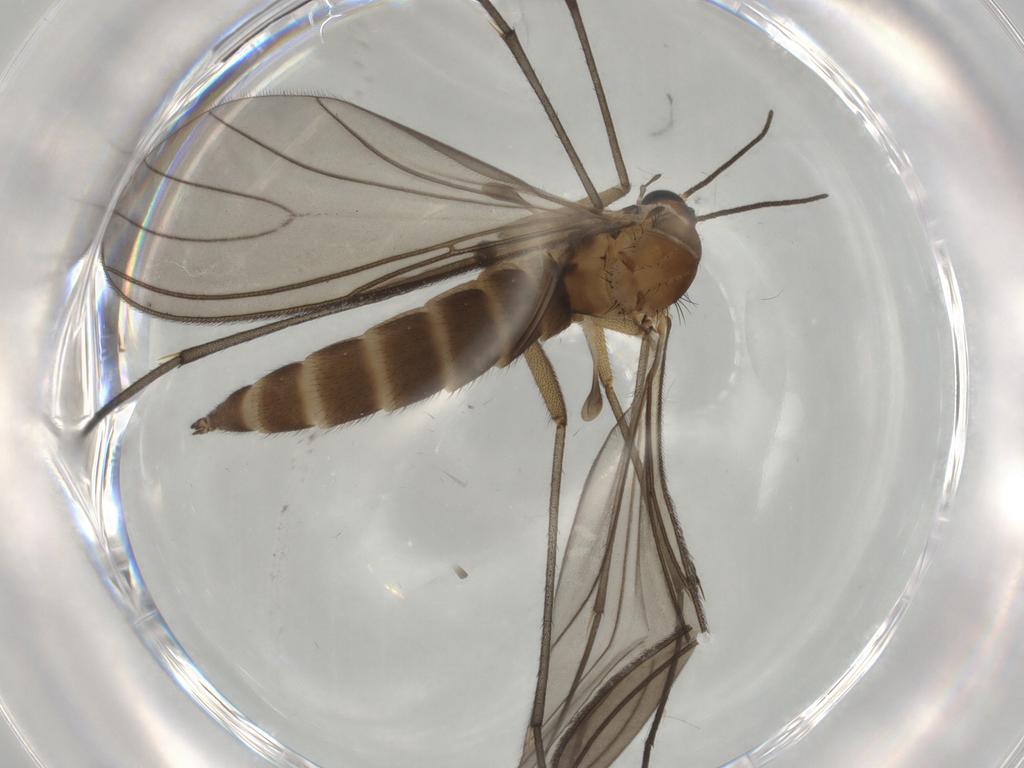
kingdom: Animalia
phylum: Arthropoda
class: Insecta
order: Diptera
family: Sciaridae
